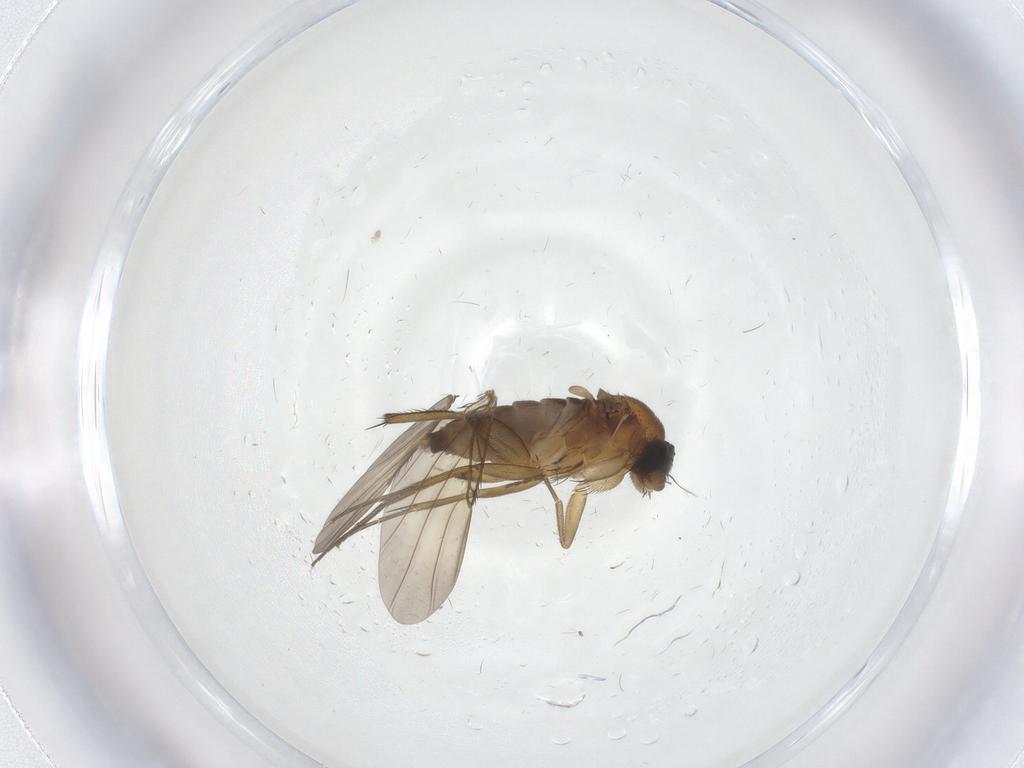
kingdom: Animalia
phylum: Arthropoda
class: Insecta
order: Diptera
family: Phoridae
